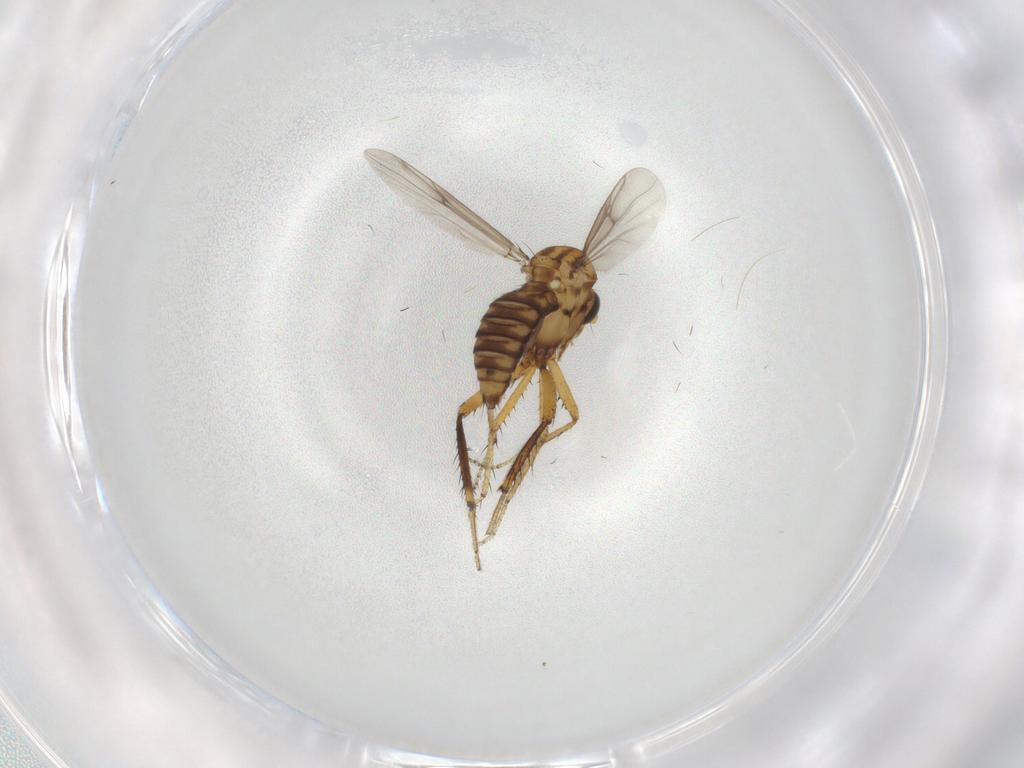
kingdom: Animalia
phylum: Arthropoda
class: Insecta
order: Diptera
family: Ceratopogonidae
